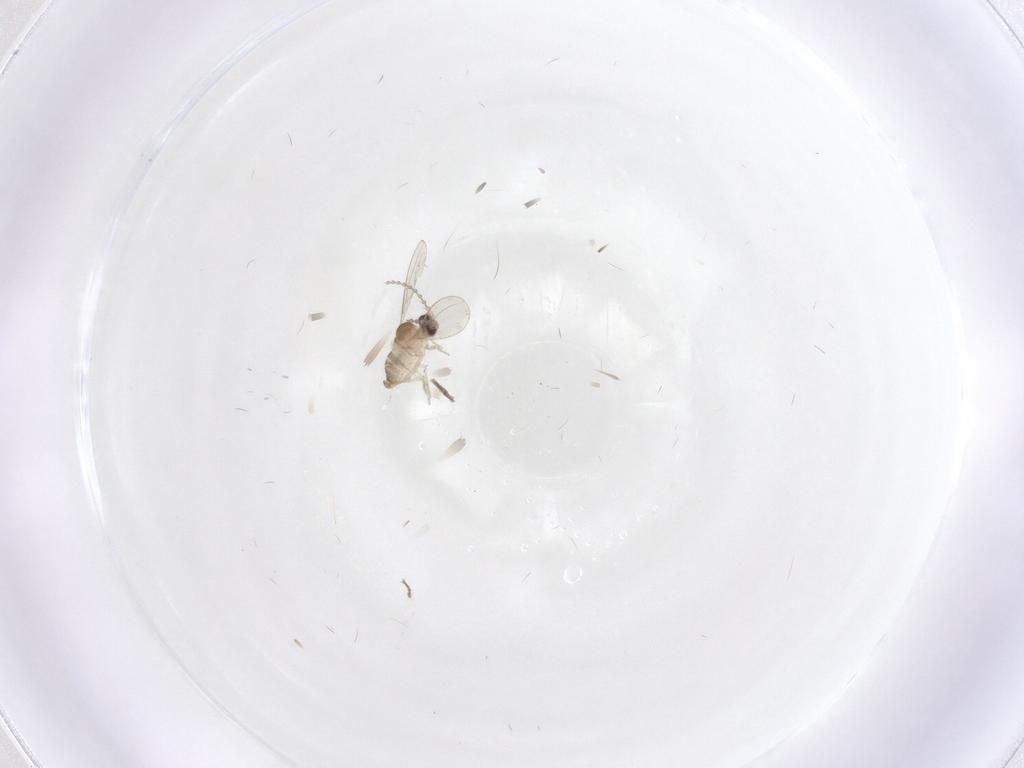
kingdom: Animalia
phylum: Arthropoda
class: Insecta
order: Diptera
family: Cecidomyiidae
